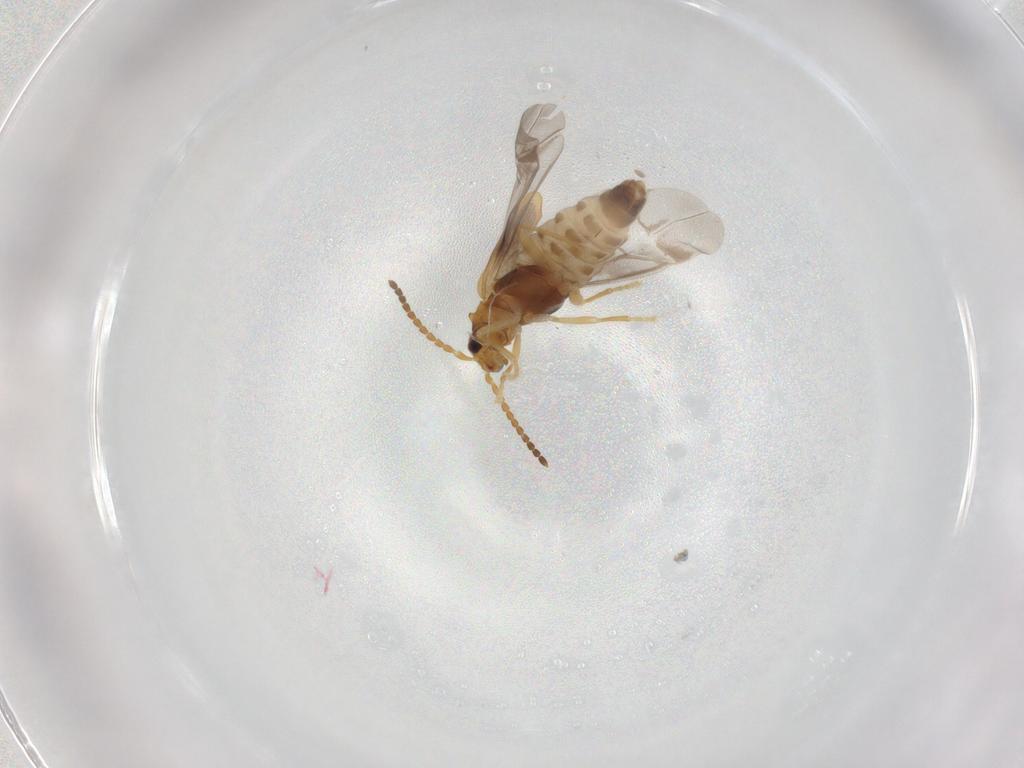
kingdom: Animalia
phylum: Arthropoda
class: Insecta
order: Coleoptera
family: Cantharidae
